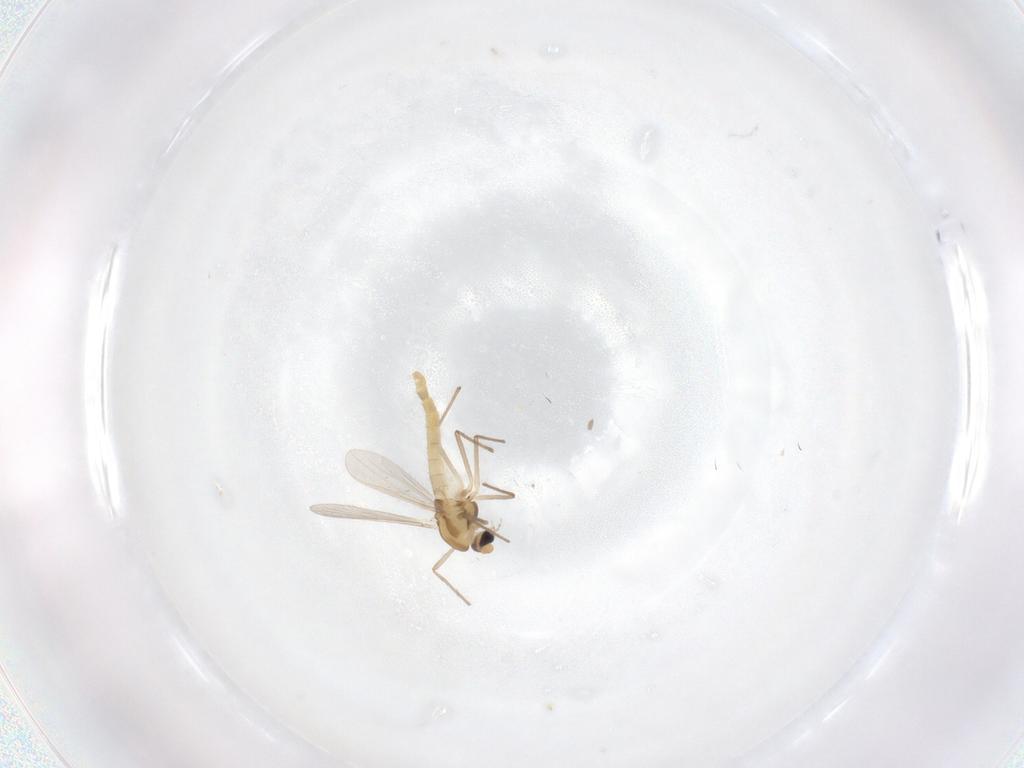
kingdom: Animalia
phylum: Arthropoda
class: Insecta
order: Diptera
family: Chironomidae
